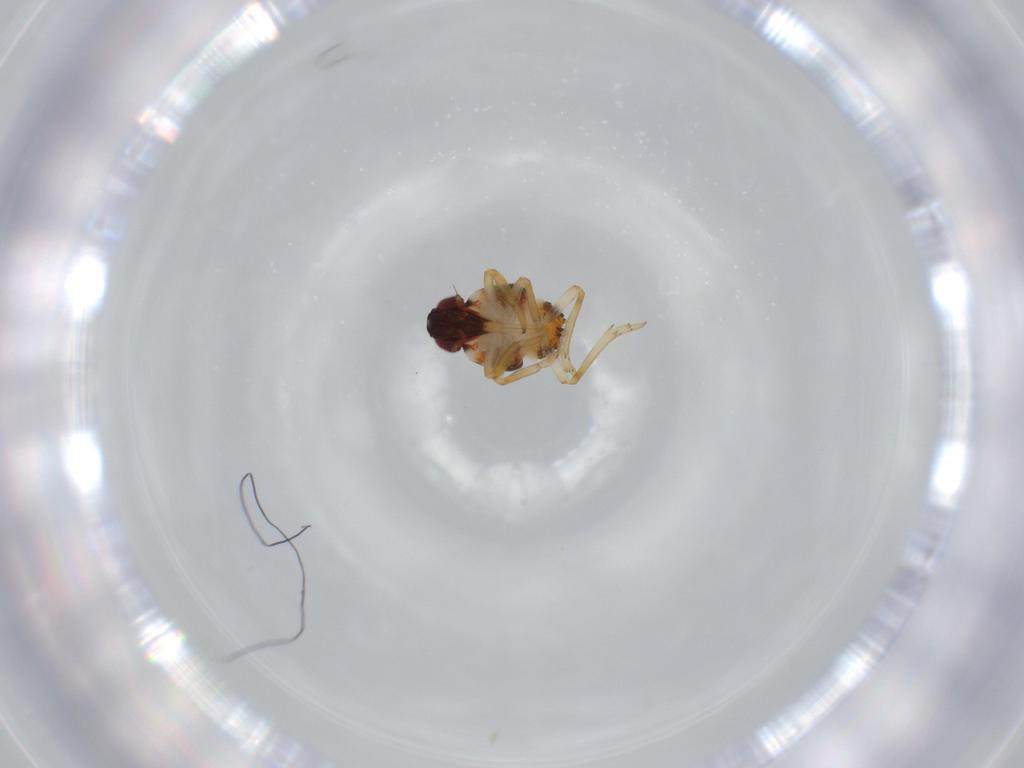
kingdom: Animalia
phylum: Arthropoda
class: Insecta
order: Hemiptera
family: Issidae
